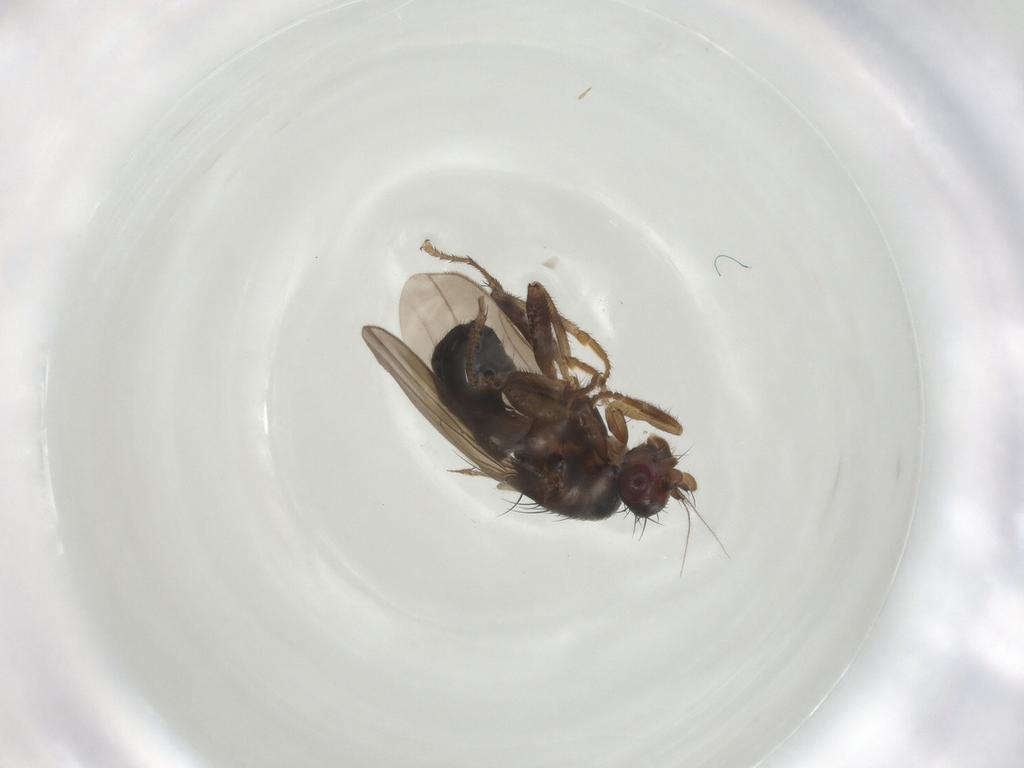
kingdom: Animalia
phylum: Arthropoda
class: Insecta
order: Diptera
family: Sphaeroceridae
